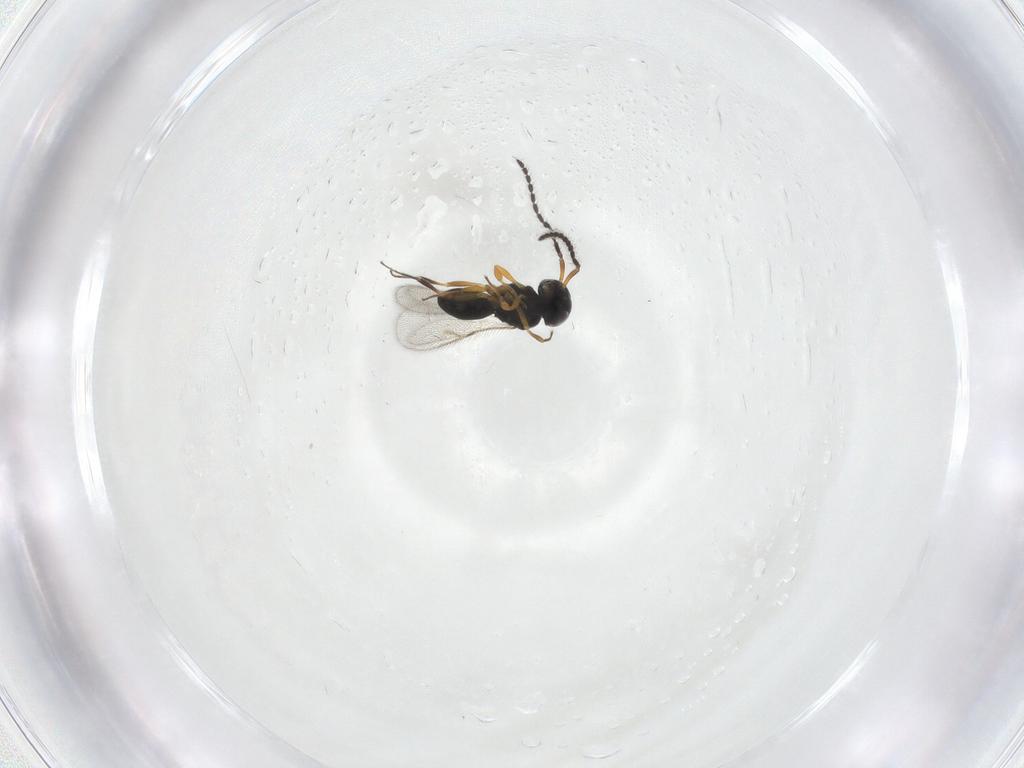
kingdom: Animalia
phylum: Arthropoda
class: Insecta
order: Hymenoptera
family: Scelionidae
